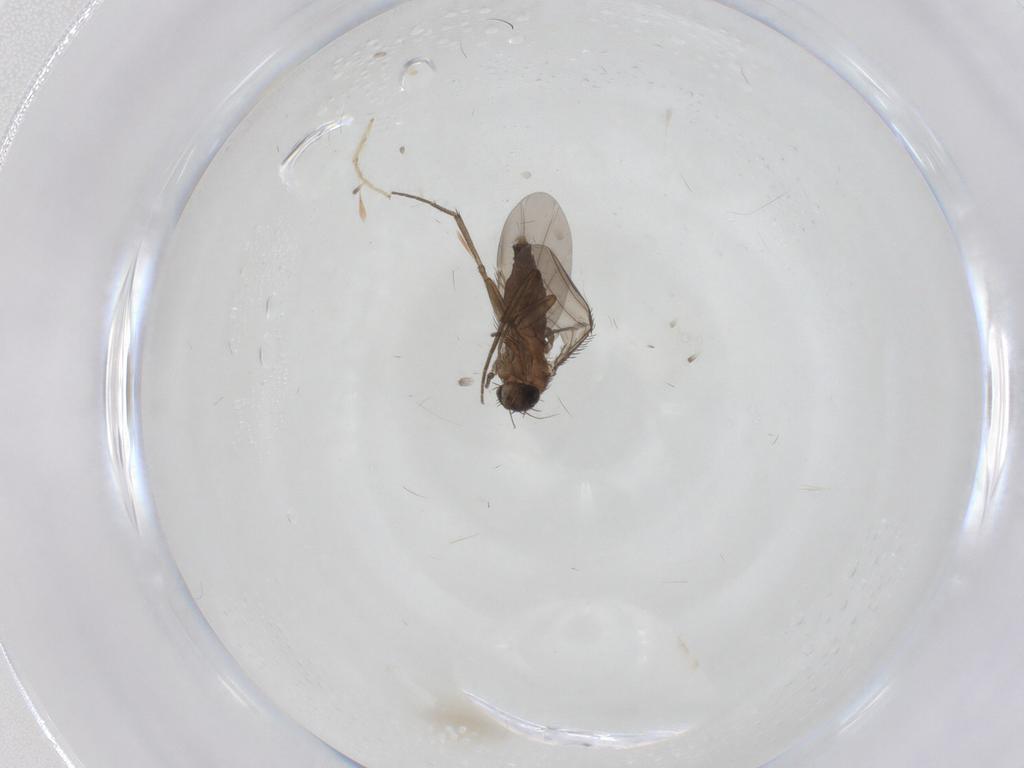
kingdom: Animalia
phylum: Arthropoda
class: Insecta
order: Diptera
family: Phoridae
